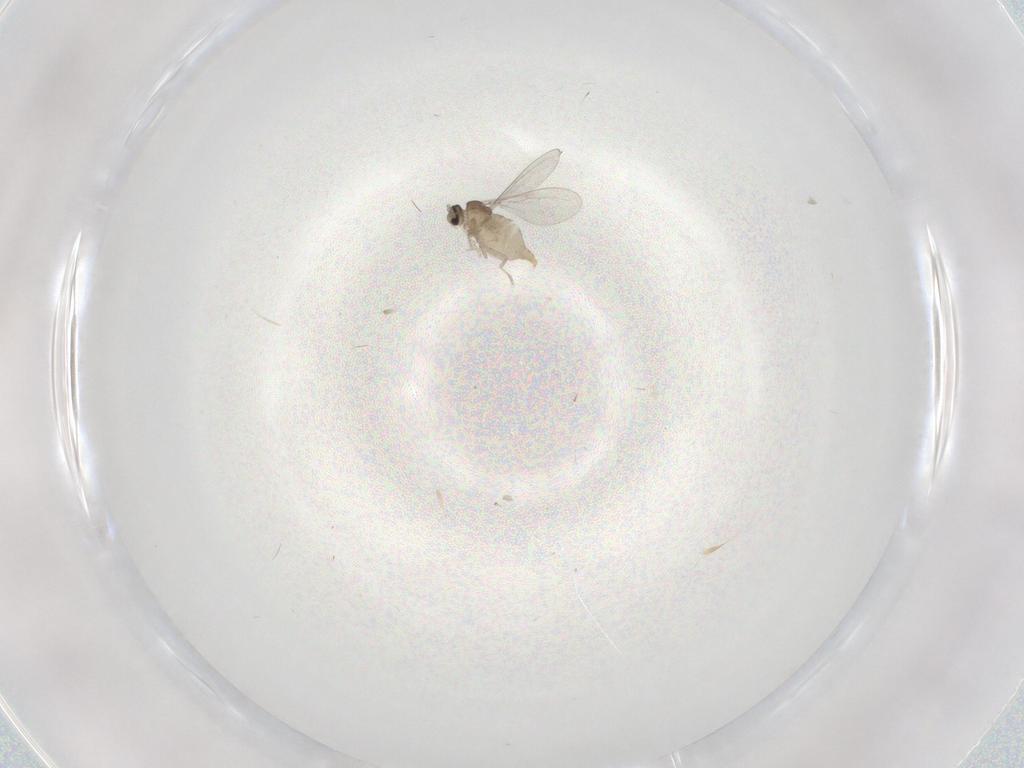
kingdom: Animalia
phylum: Arthropoda
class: Insecta
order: Diptera
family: Cecidomyiidae
